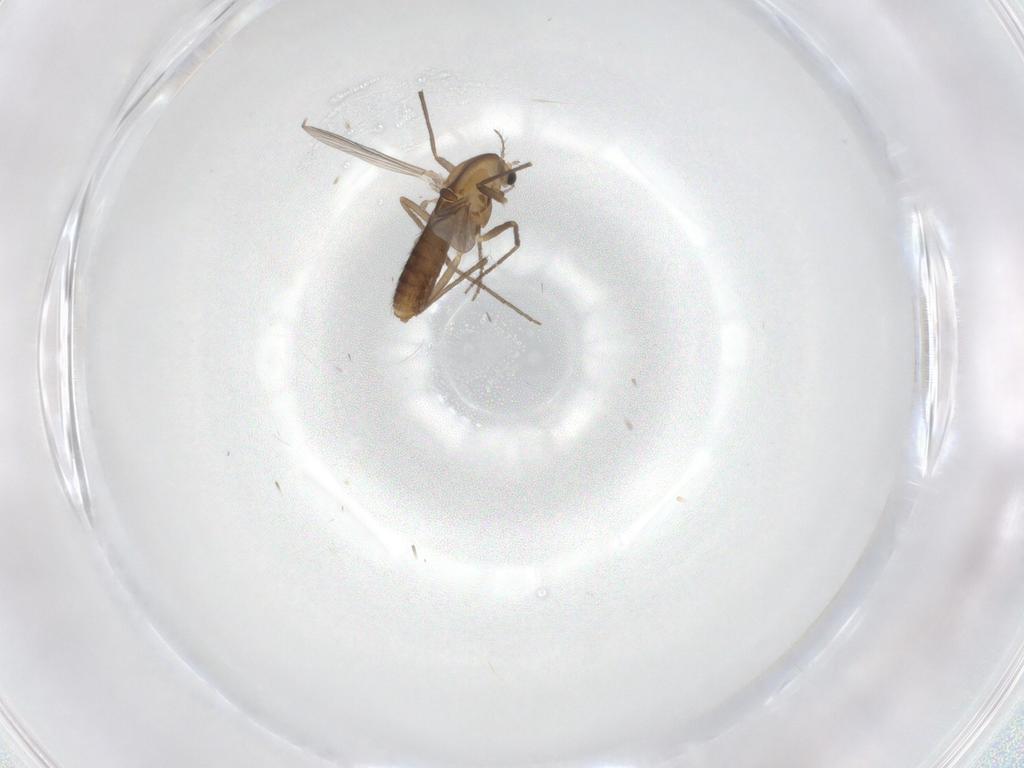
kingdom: Animalia
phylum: Arthropoda
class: Insecta
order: Diptera
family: Chironomidae
